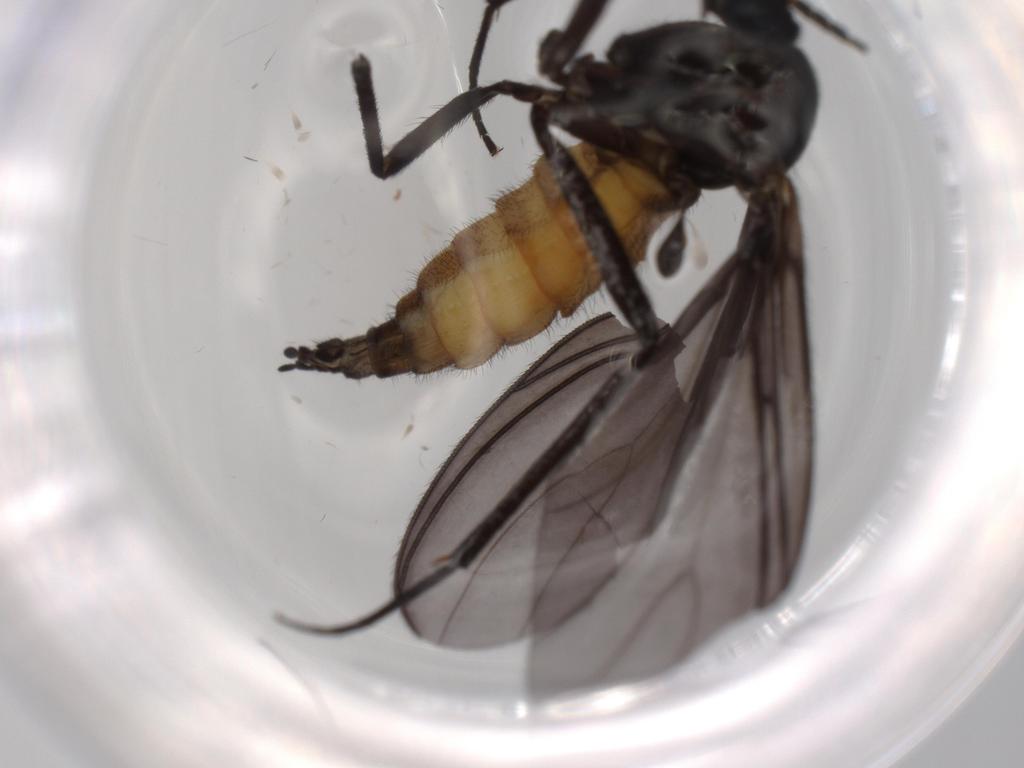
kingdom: Animalia
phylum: Arthropoda
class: Insecta
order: Diptera
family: Sciaridae
